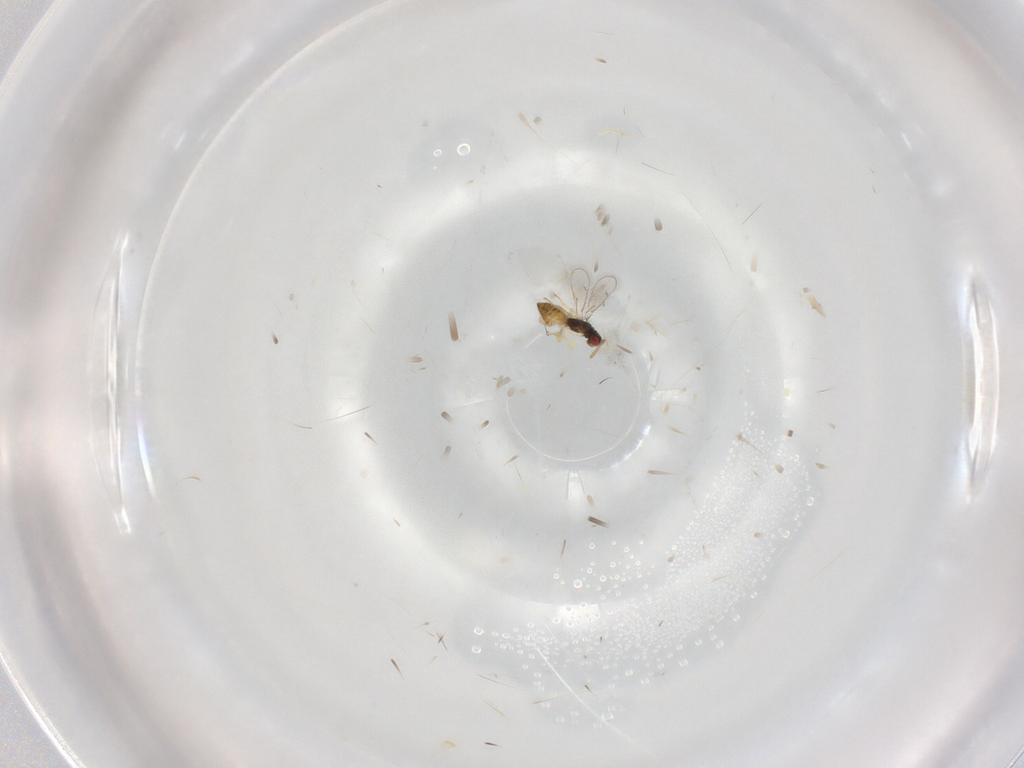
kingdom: Animalia
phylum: Arthropoda
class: Insecta
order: Hymenoptera
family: Eulophidae
